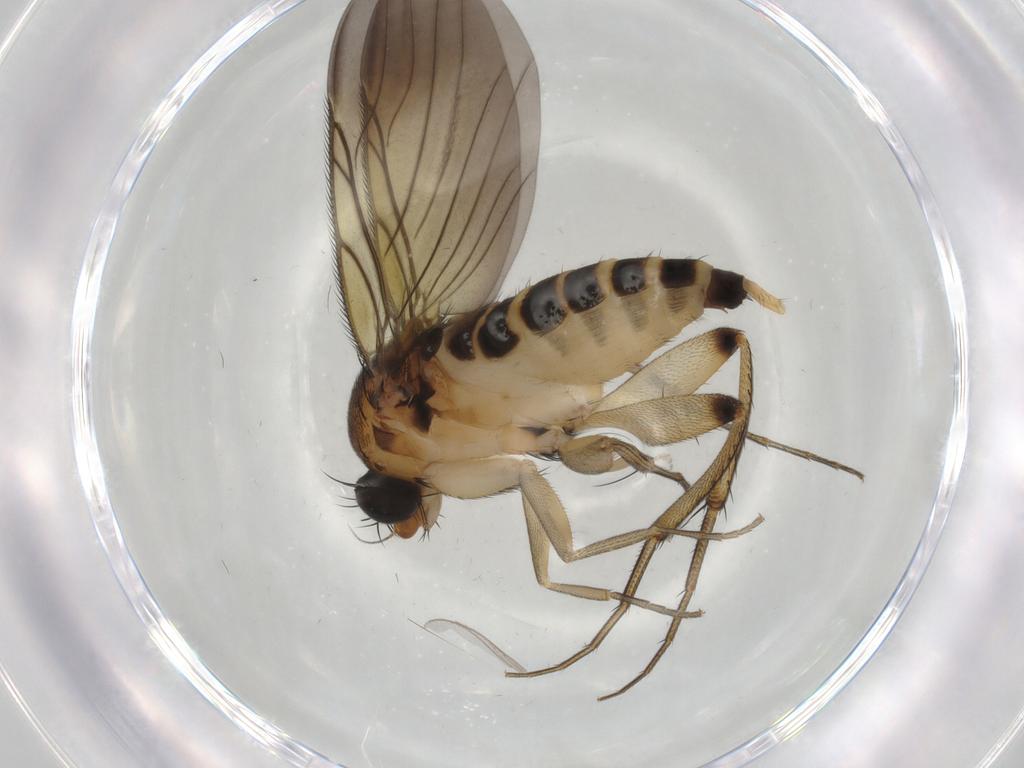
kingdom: Animalia
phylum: Arthropoda
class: Insecta
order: Diptera
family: Phoridae
